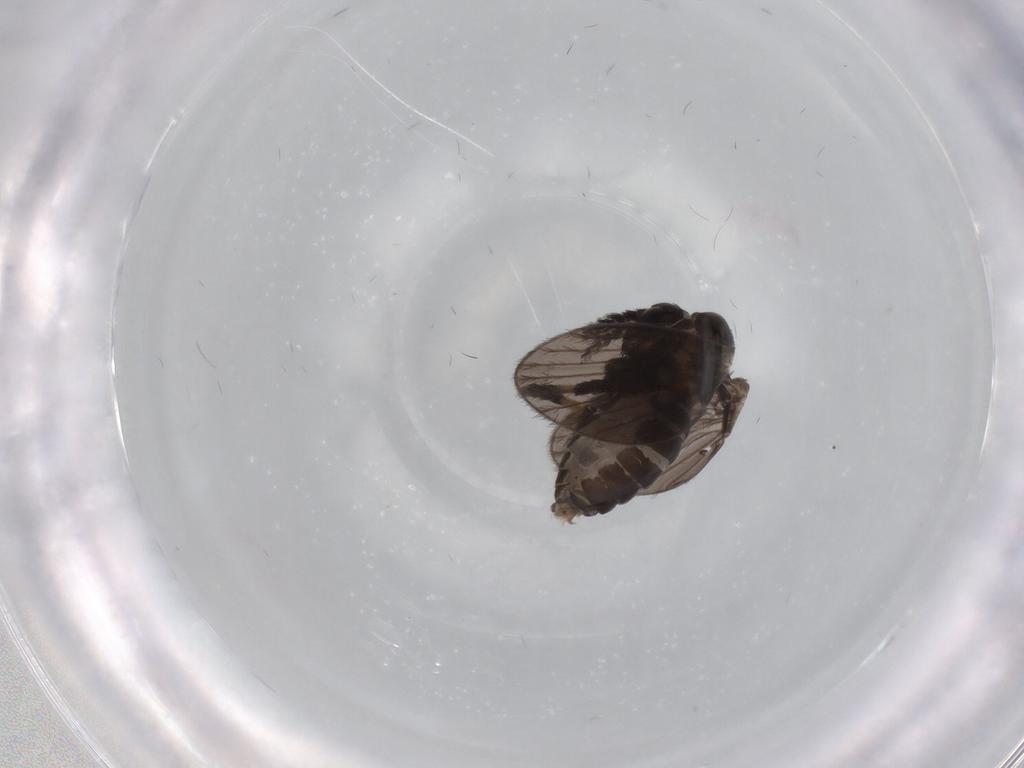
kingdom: Animalia
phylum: Arthropoda
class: Insecta
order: Diptera
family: Psychodidae
